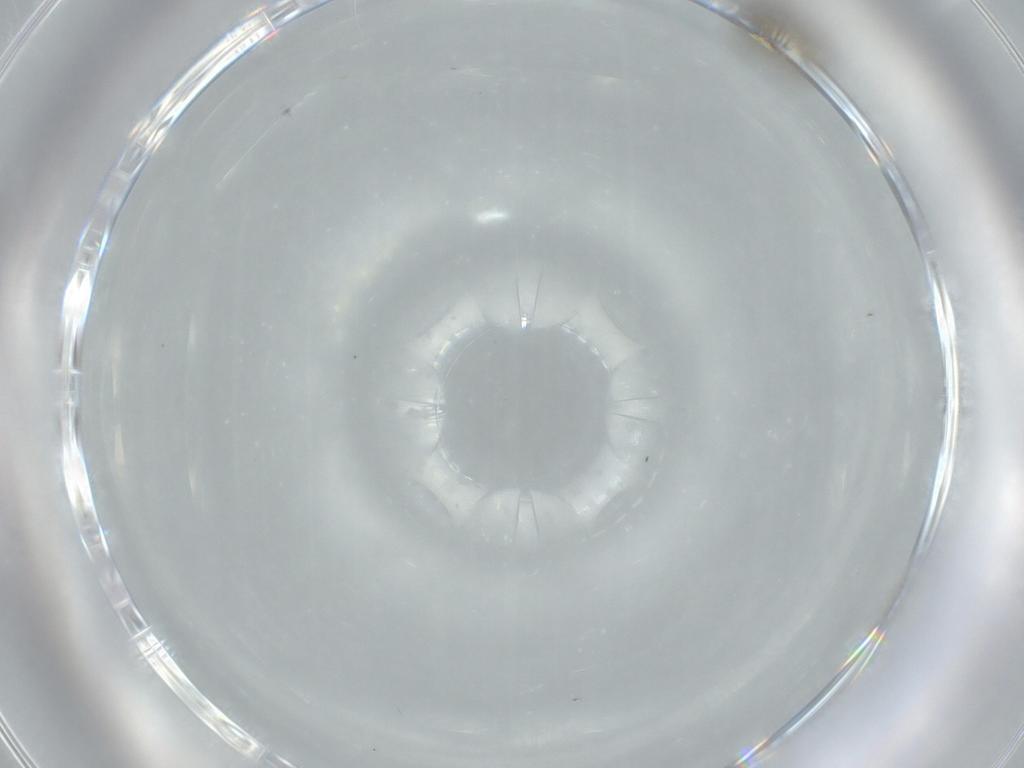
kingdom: Animalia
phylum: Arthropoda
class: Insecta
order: Diptera
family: Cecidomyiidae
